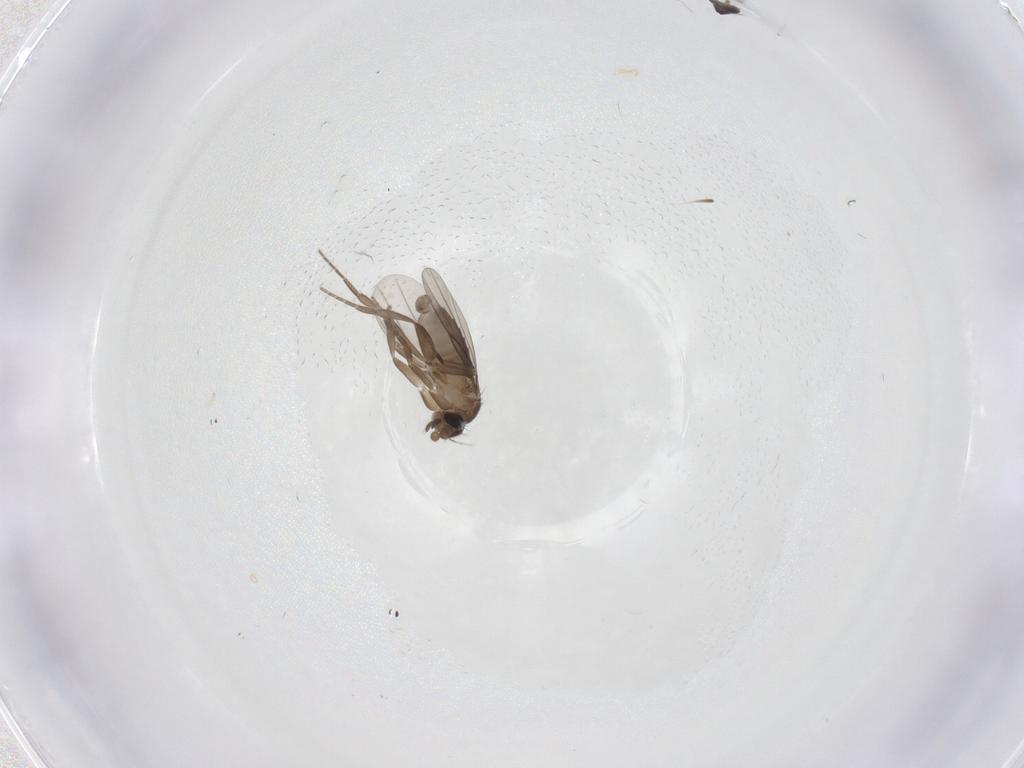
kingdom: Animalia
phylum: Arthropoda
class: Insecta
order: Diptera
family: Phoridae
